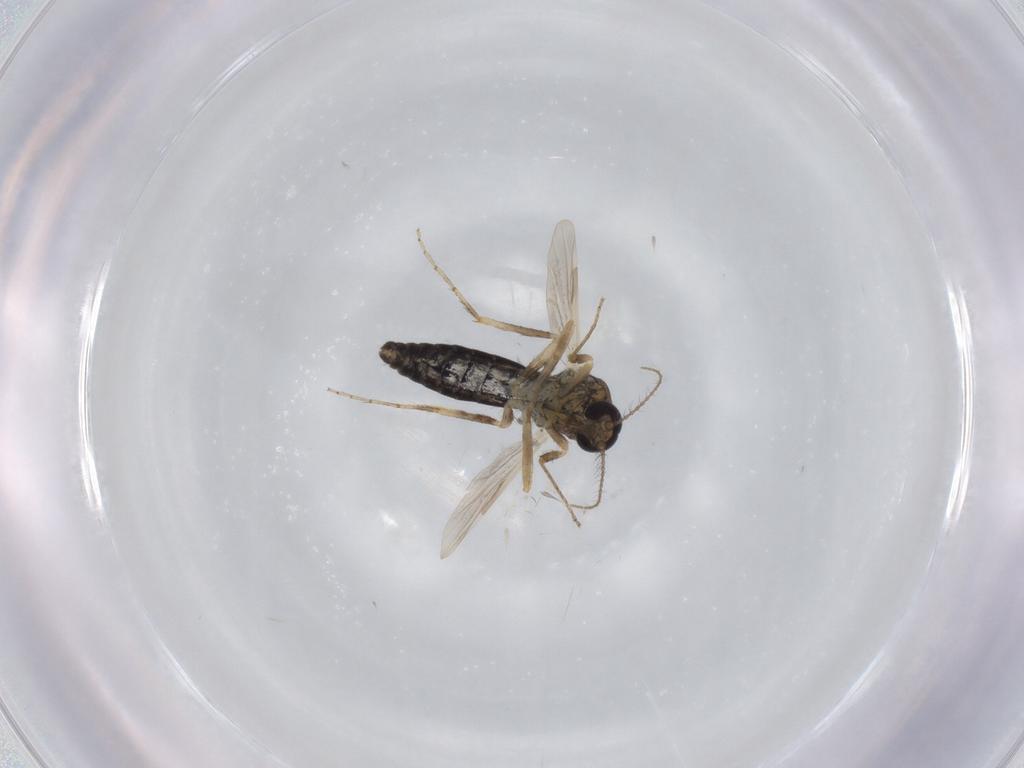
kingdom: Animalia
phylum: Arthropoda
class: Insecta
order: Diptera
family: Ceratopogonidae
